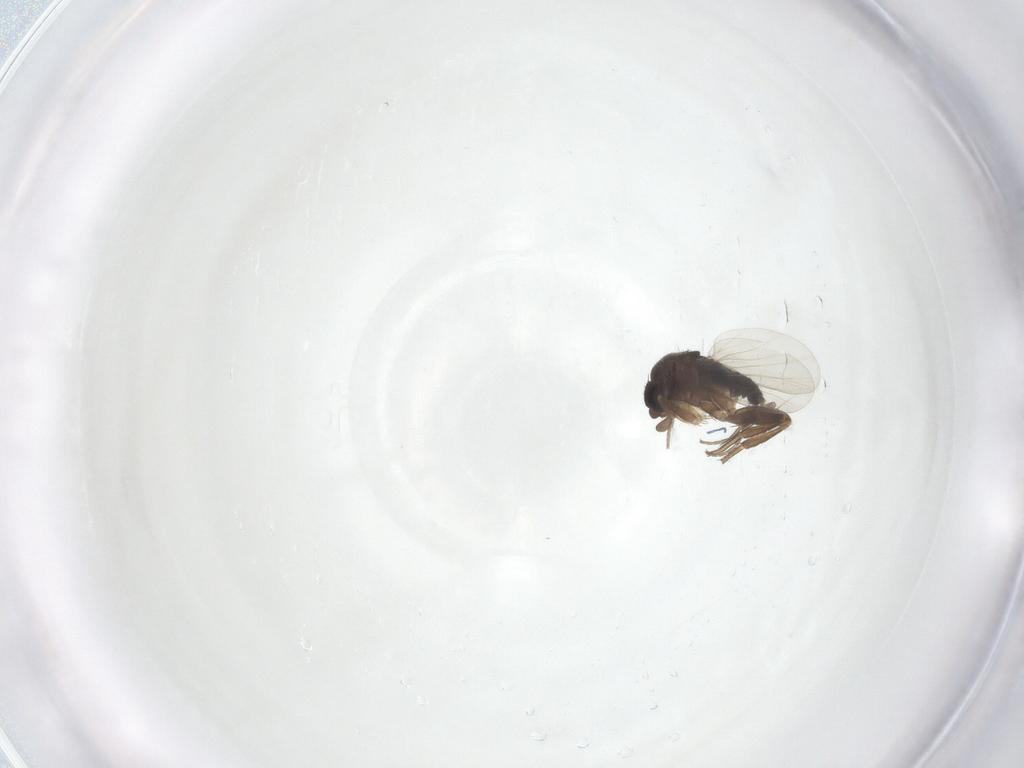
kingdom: Animalia
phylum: Arthropoda
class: Insecta
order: Diptera
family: Phoridae
